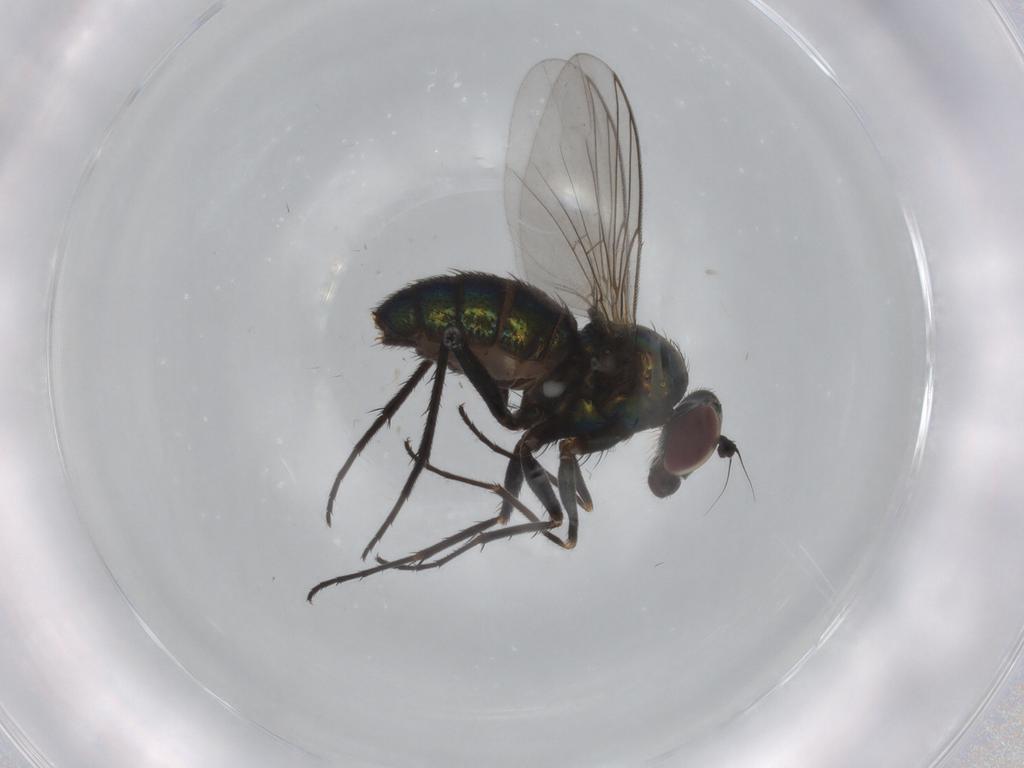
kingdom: Animalia
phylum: Arthropoda
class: Insecta
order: Diptera
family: Dolichopodidae
